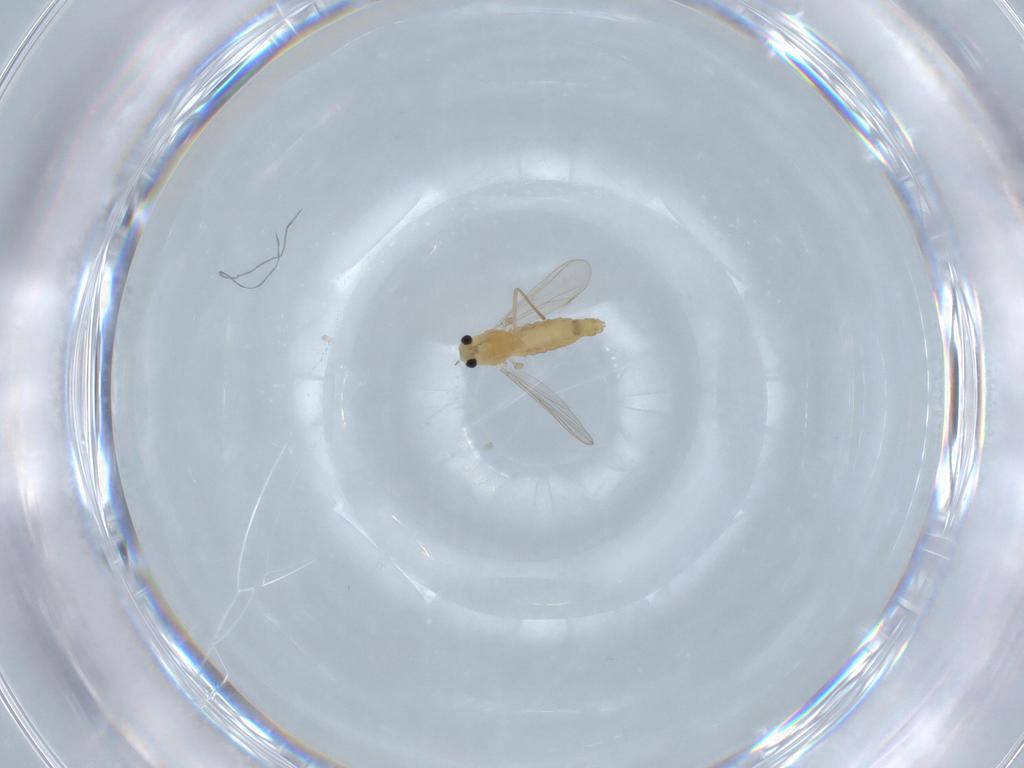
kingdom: Animalia
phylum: Arthropoda
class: Insecta
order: Diptera
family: Chironomidae
